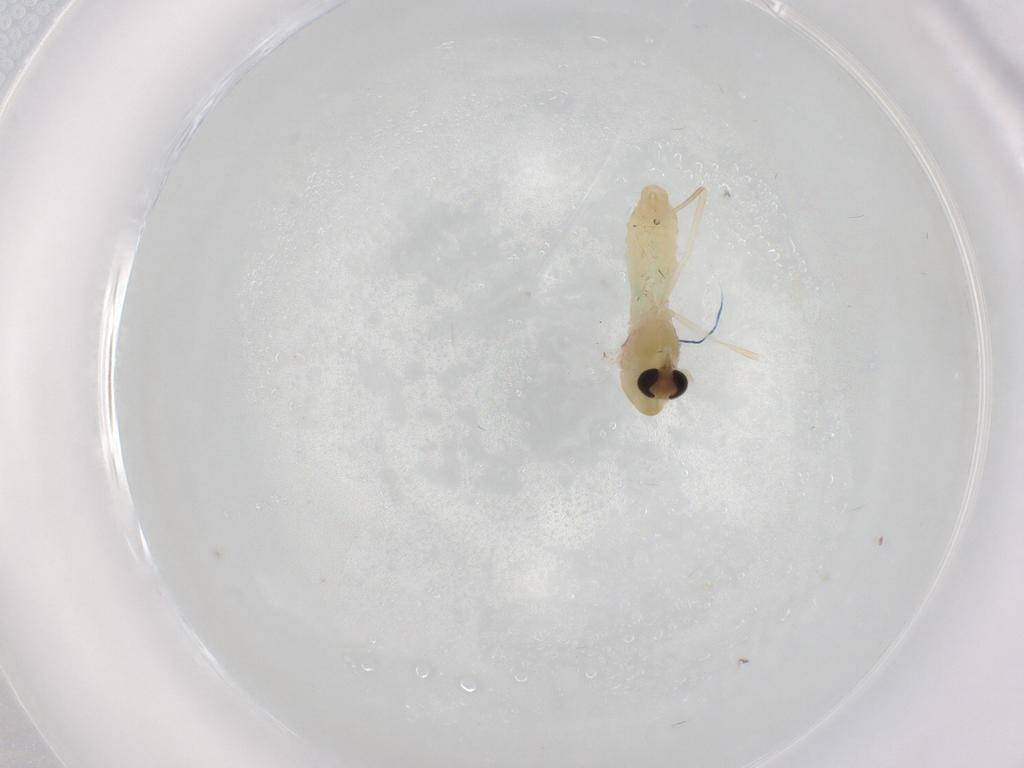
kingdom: Animalia
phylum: Arthropoda
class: Insecta
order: Diptera
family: Chironomidae
